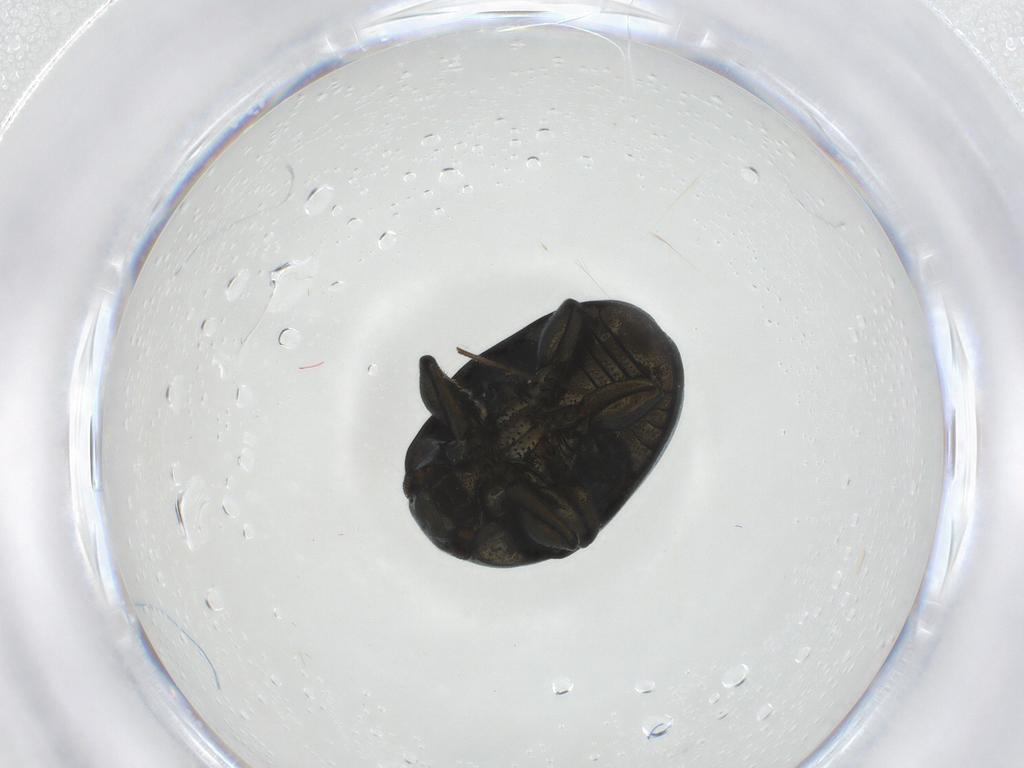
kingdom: Animalia
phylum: Arthropoda
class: Insecta
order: Coleoptera
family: Chrysomelidae
